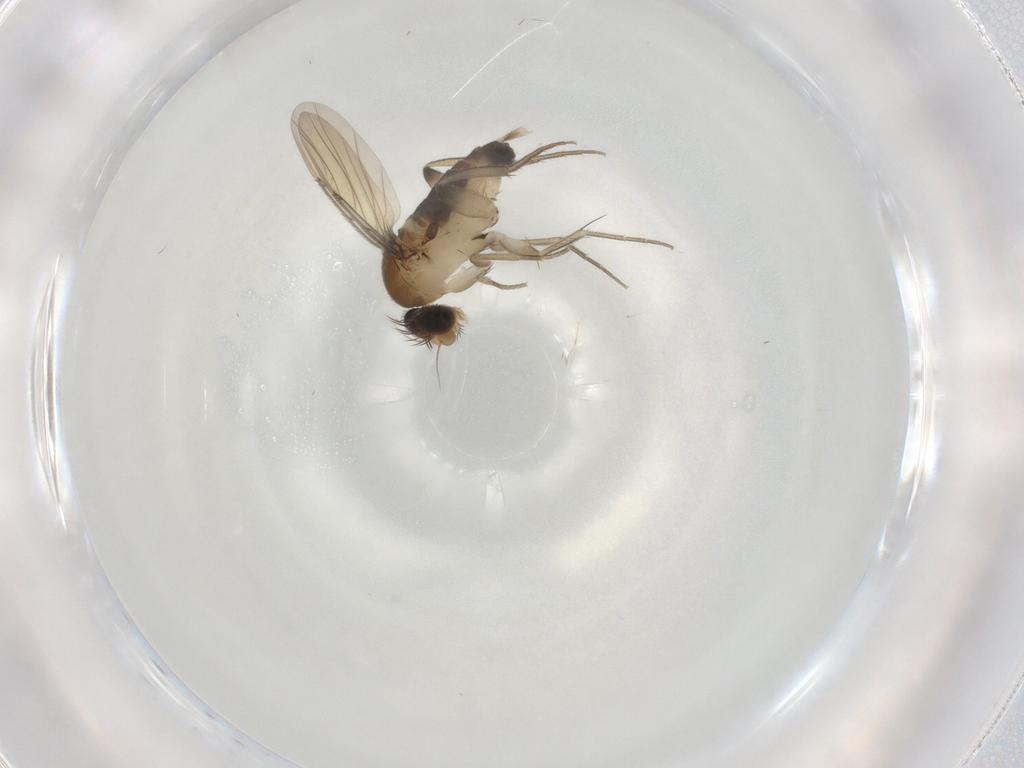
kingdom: Animalia
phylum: Arthropoda
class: Insecta
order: Diptera
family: Phoridae
